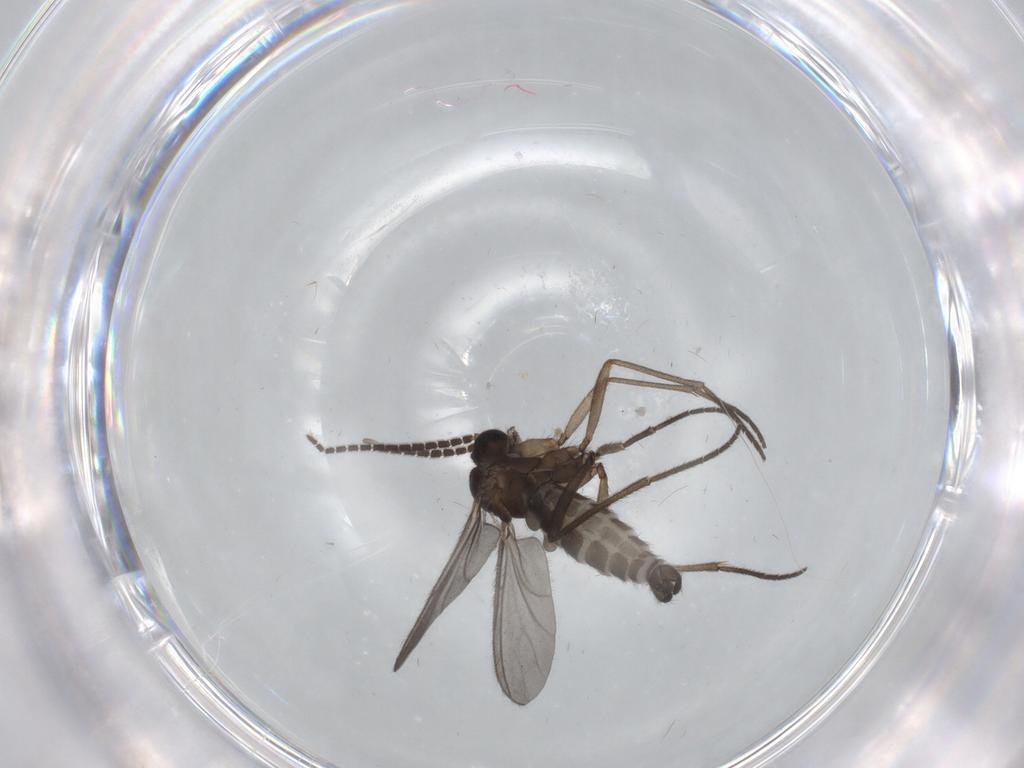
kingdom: Animalia
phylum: Arthropoda
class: Insecta
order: Diptera
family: Sciaridae
